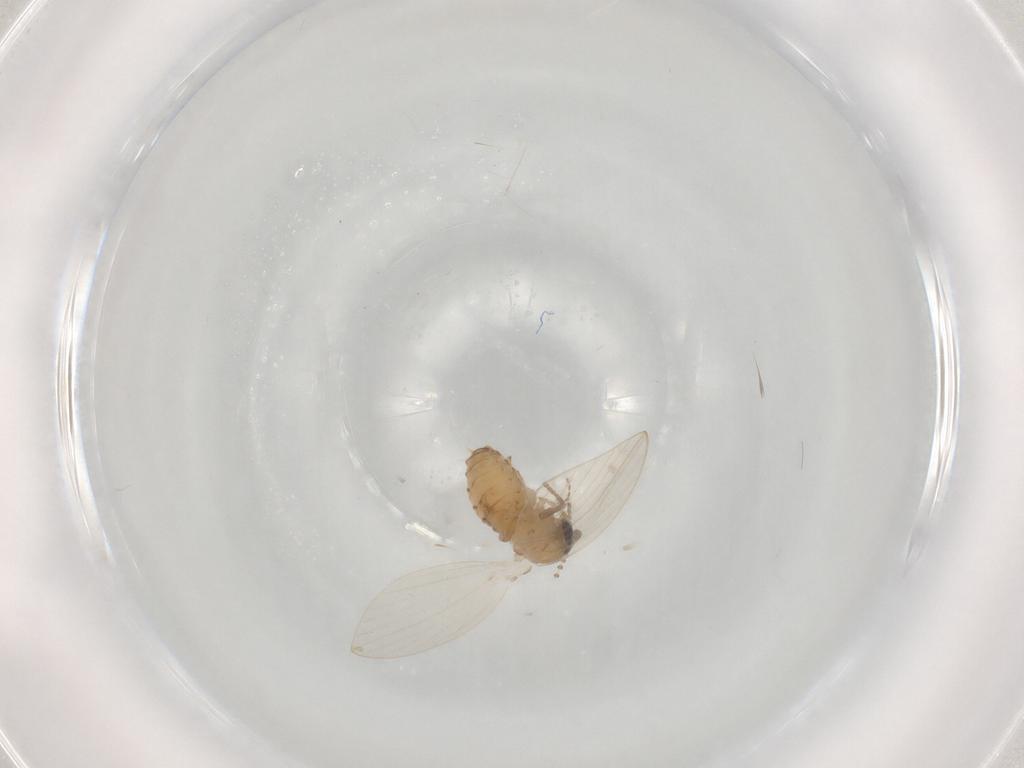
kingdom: Animalia
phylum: Arthropoda
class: Insecta
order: Diptera
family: Psychodidae
